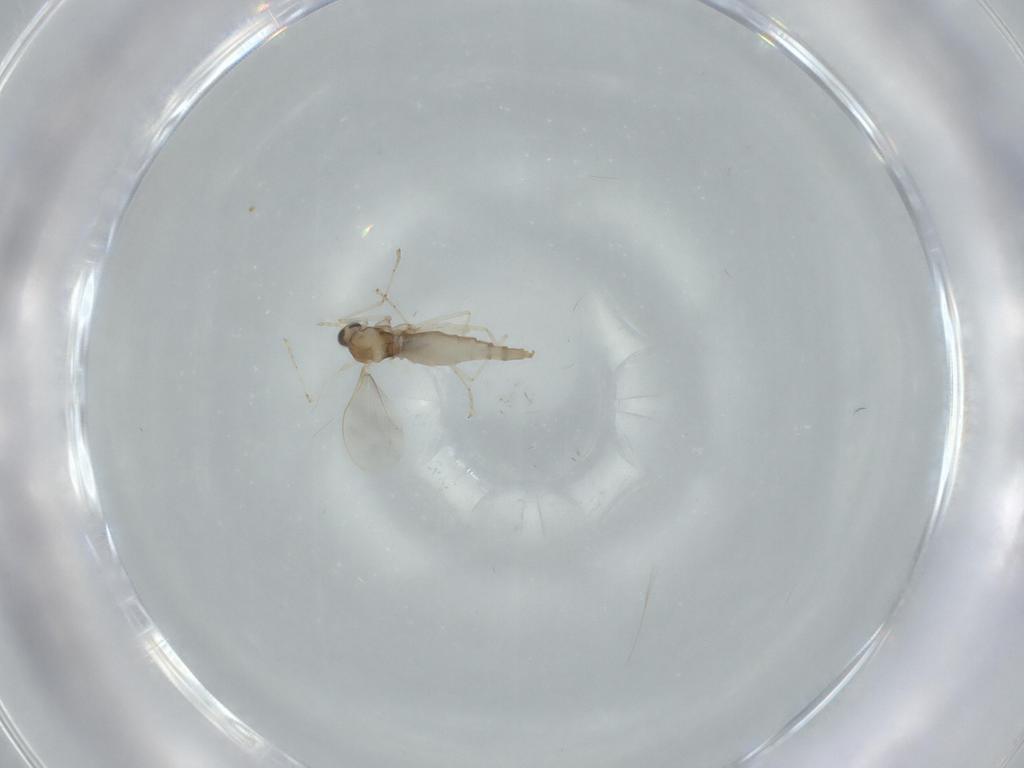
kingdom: Animalia
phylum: Arthropoda
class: Insecta
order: Diptera
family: Cecidomyiidae
